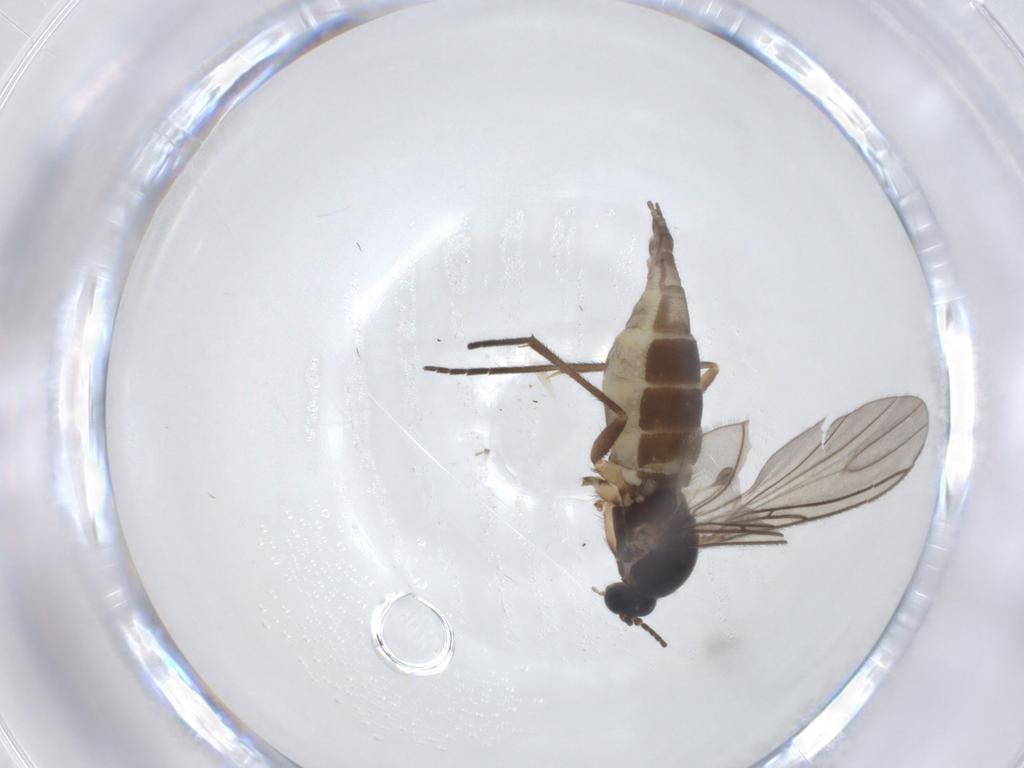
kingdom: Animalia
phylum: Arthropoda
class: Insecta
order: Diptera
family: Sciaridae
